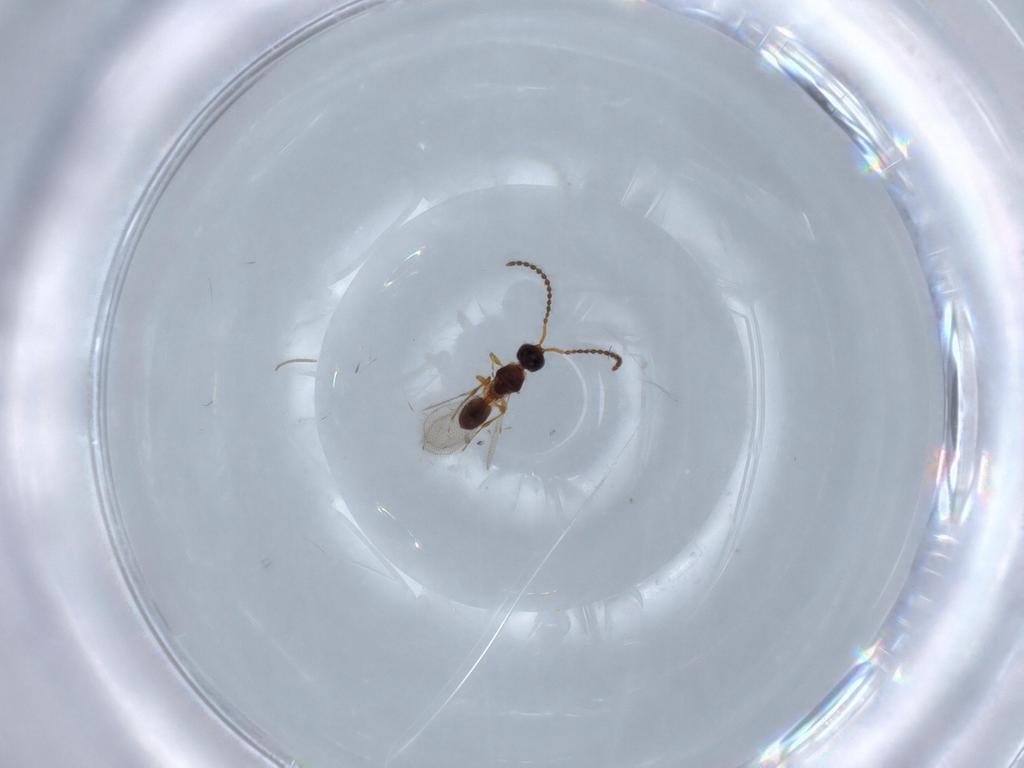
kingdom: Animalia
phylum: Arthropoda
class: Insecta
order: Hymenoptera
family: Diapriidae
